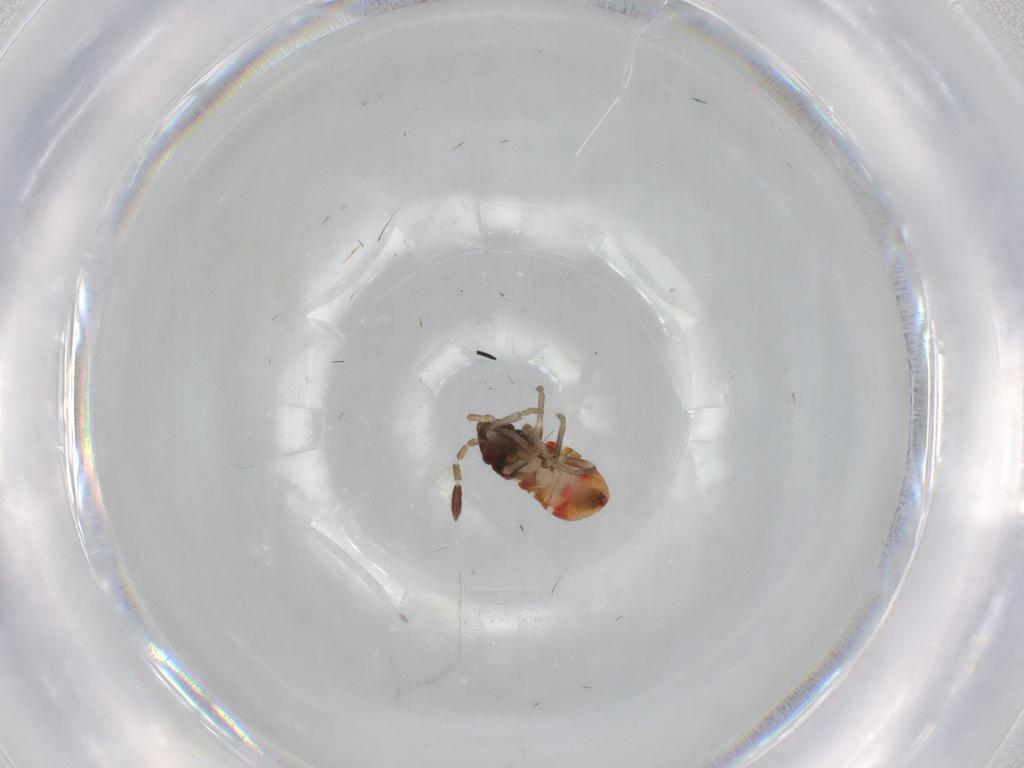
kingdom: Animalia
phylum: Arthropoda
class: Insecta
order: Hemiptera
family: Rhyparochromidae
